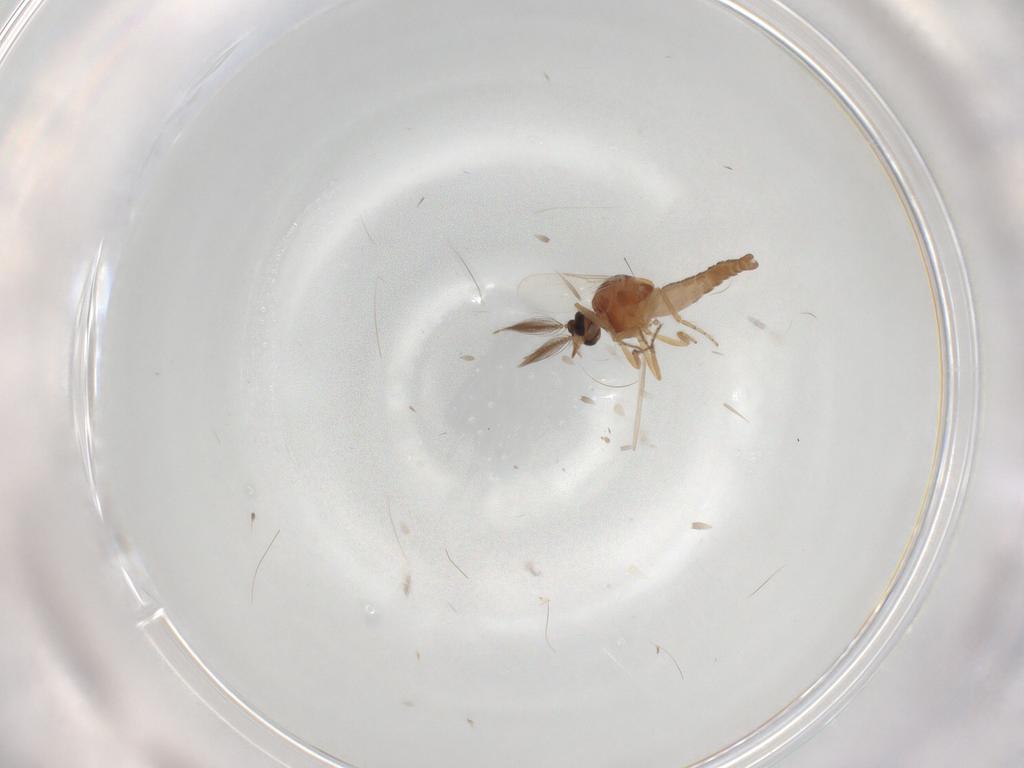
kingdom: Animalia
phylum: Arthropoda
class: Insecta
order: Diptera
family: Ceratopogonidae
